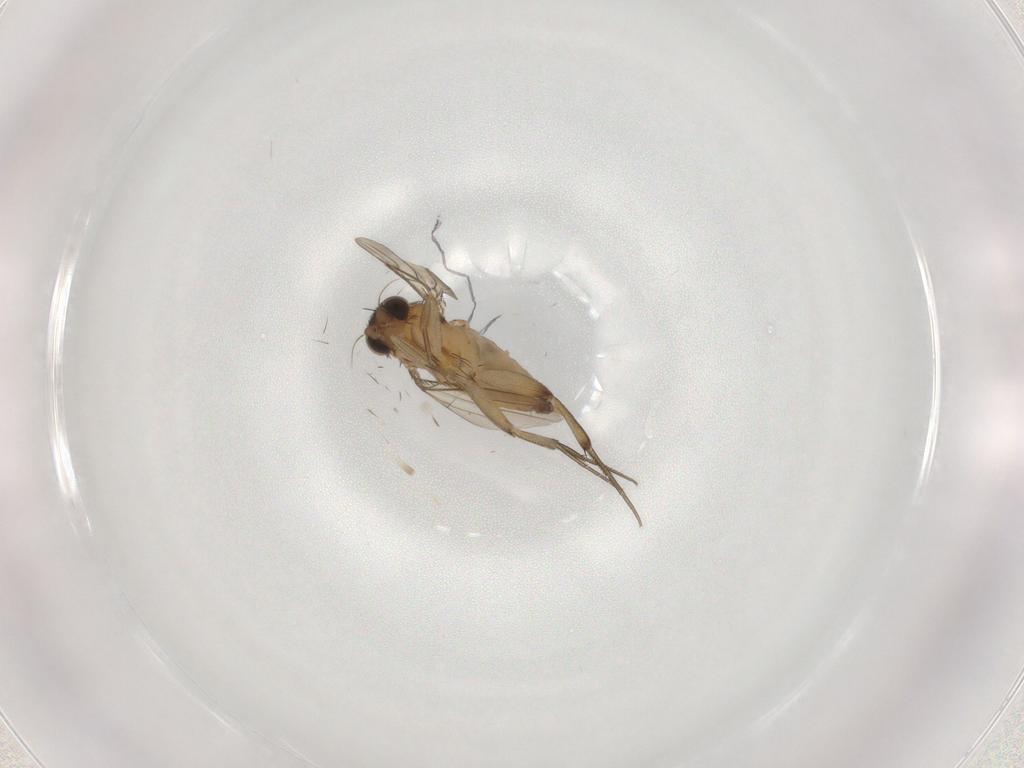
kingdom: Animalia
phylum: Arthropoda
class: Insecta
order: Diptera
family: Phoridae
